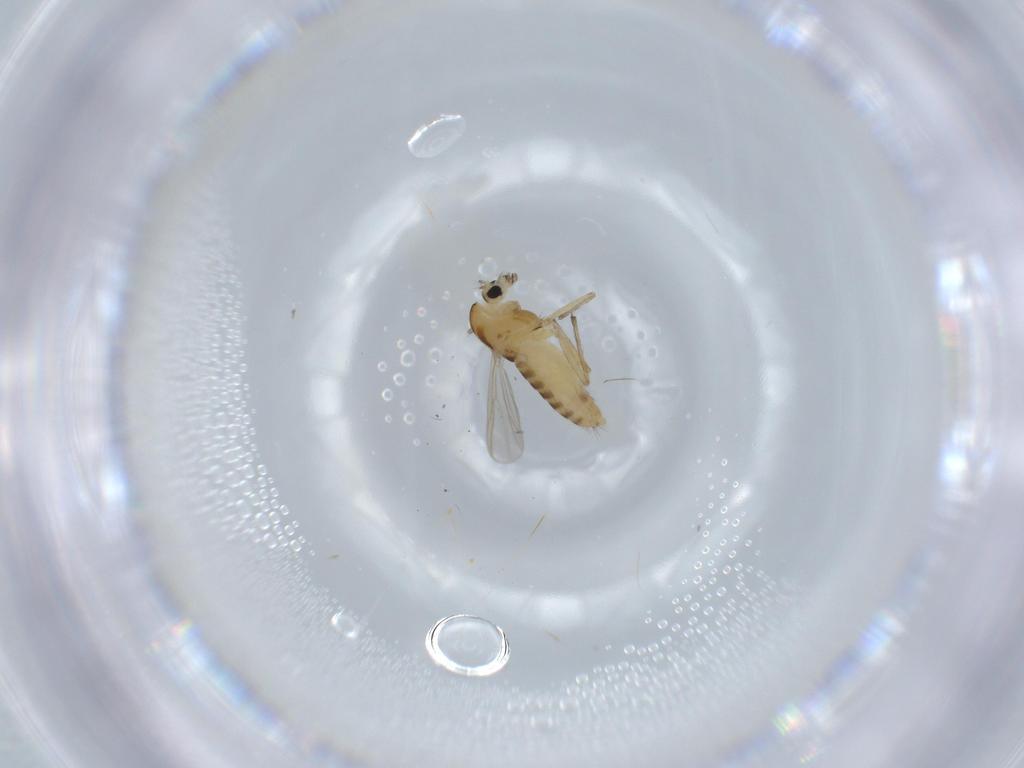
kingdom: Animalia
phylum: Arthropoda
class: Insecta
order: Diptera
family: Chironomidae
